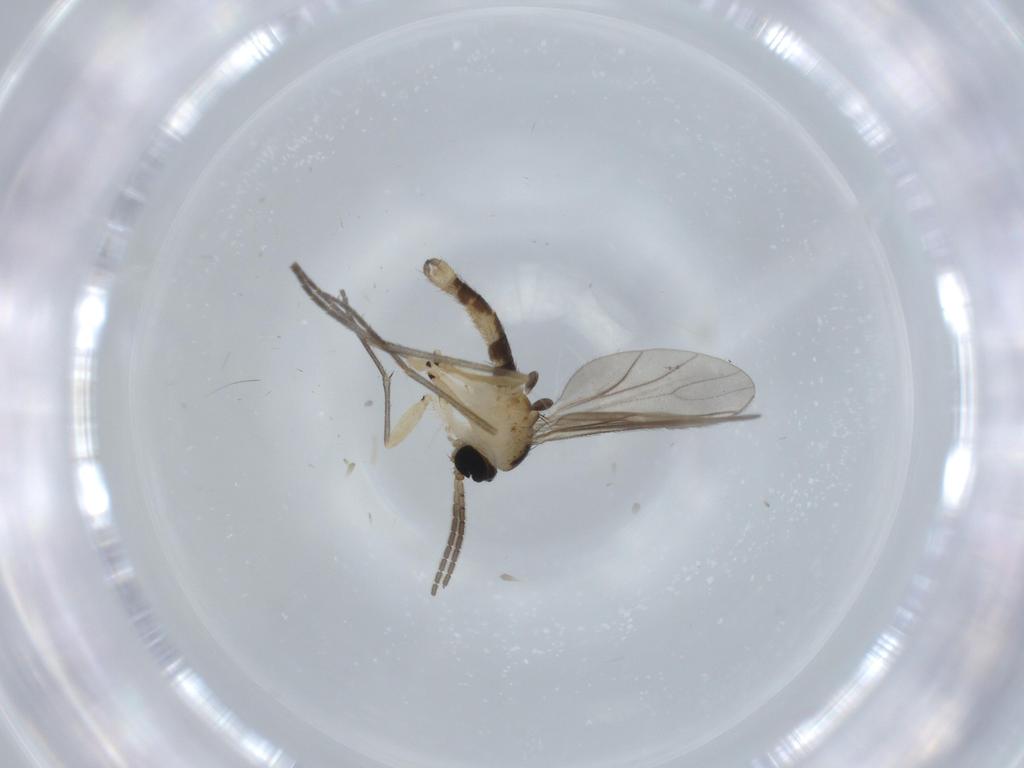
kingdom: Animalia
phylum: Arthropoda
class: Insecta
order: Diptera
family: Sciaridae
